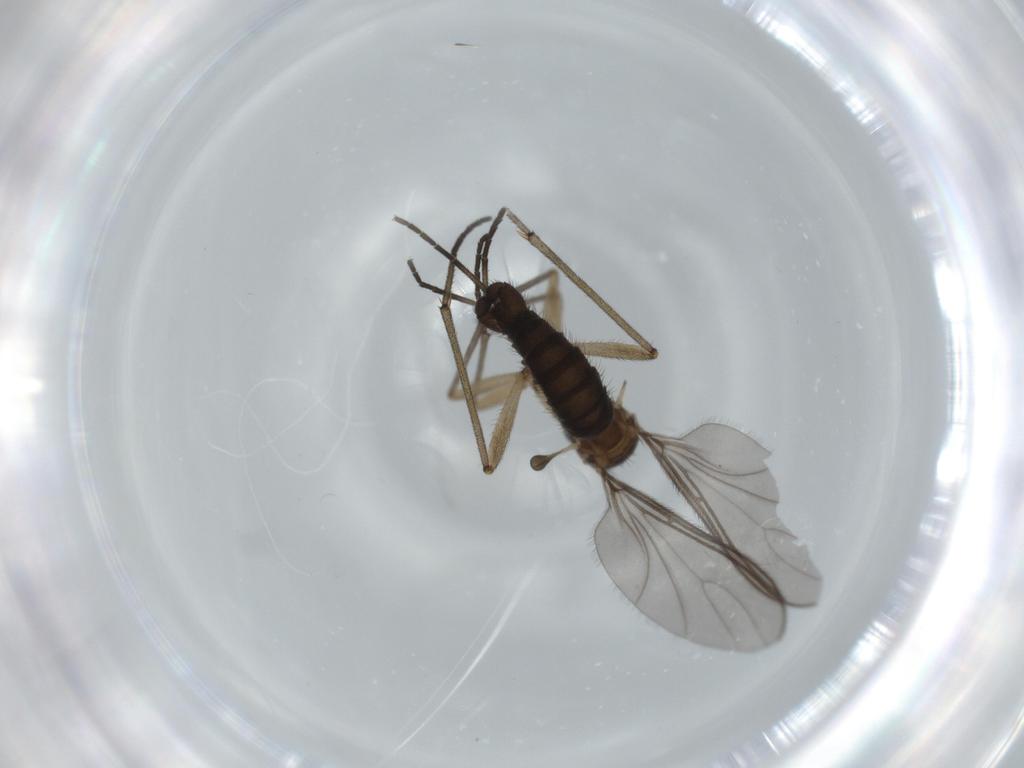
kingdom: Animalia
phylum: Arthropoda
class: Insecta
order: Diptera
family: Sciaridae
